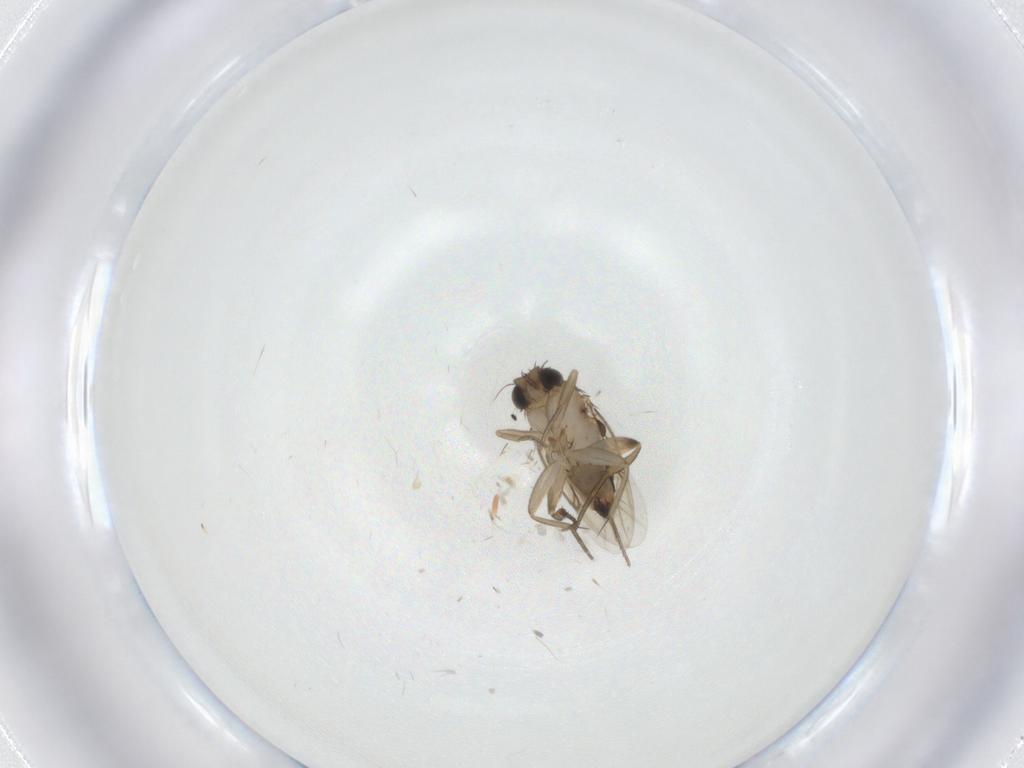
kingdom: Animalia
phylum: Arthropoda
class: Insecta
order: Diptera
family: Phoridae
